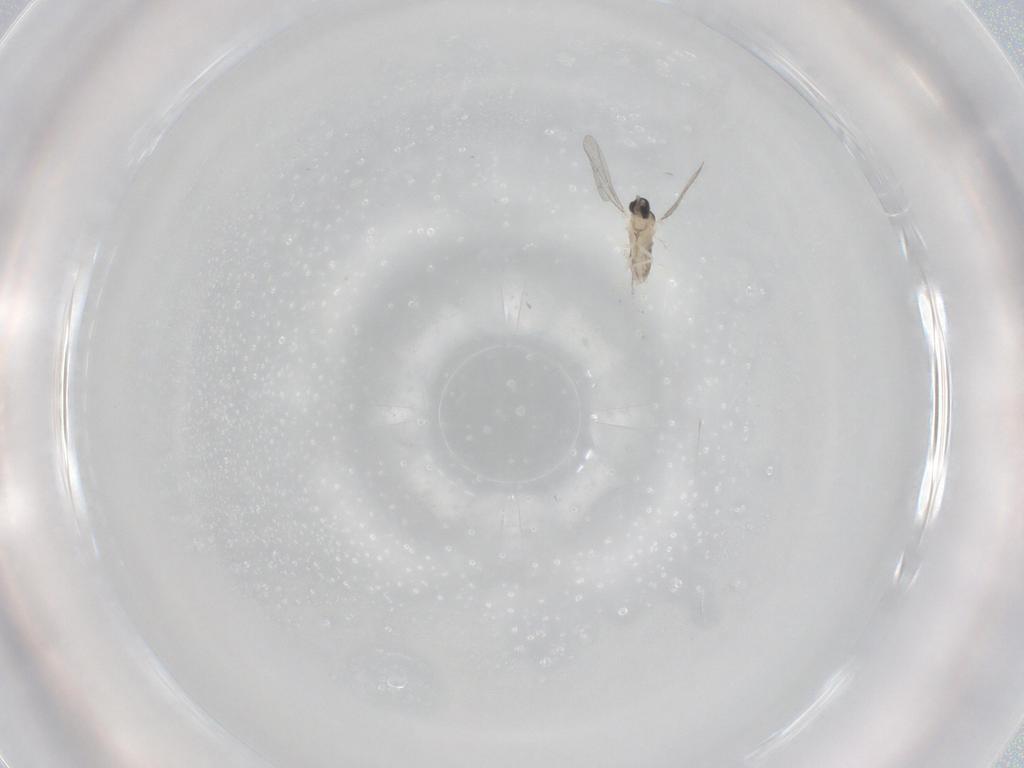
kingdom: Animalia
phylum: Arthropoda
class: Insecta
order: Diptera
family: Cecidomyiidae
